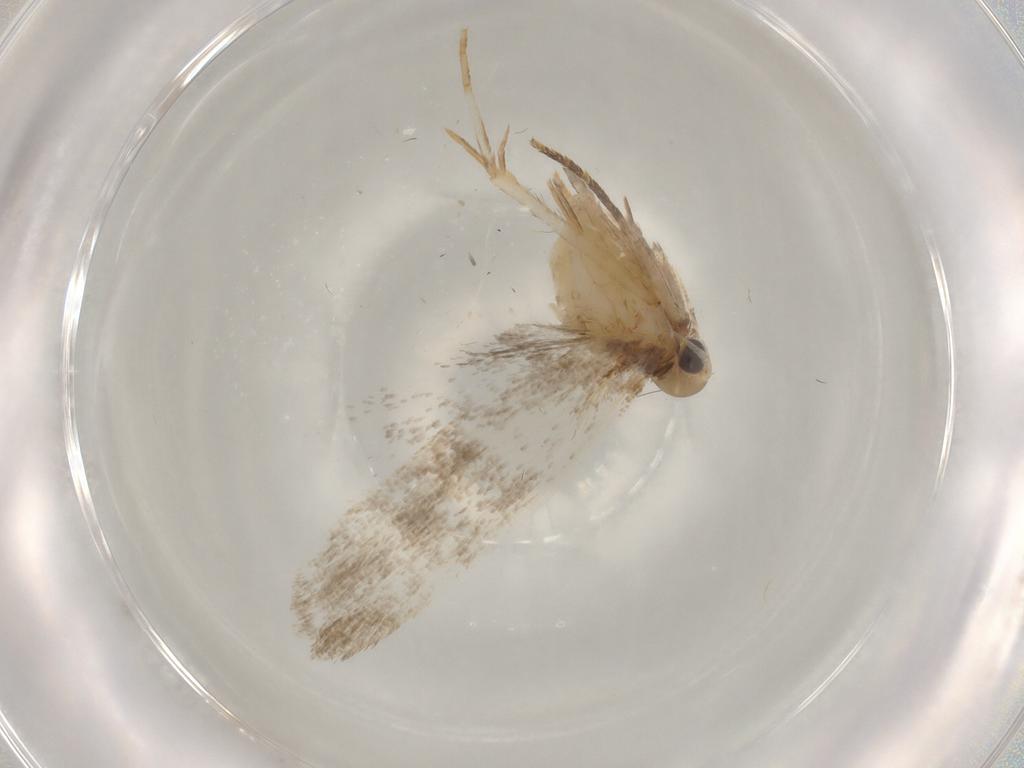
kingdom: Animalia
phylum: Arthropoda
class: Insecta
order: Lepidoptera
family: Gelechiidae
